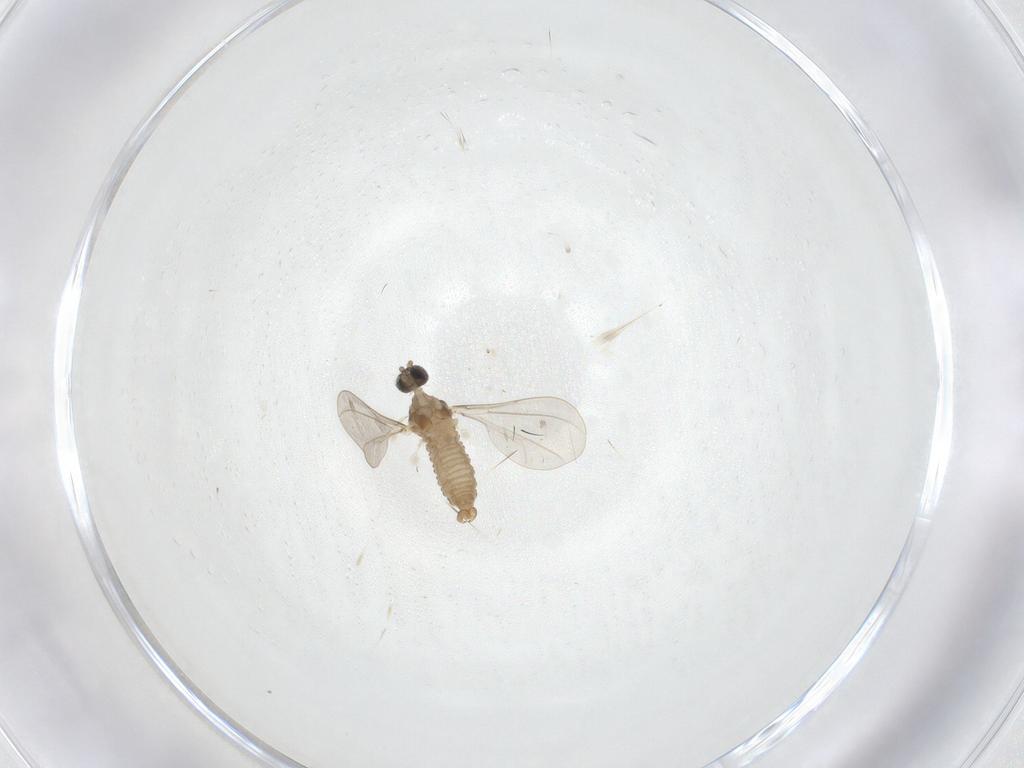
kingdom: Animalia
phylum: Arthropoda
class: Insecta
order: Diptera
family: Cecidomyiidae
